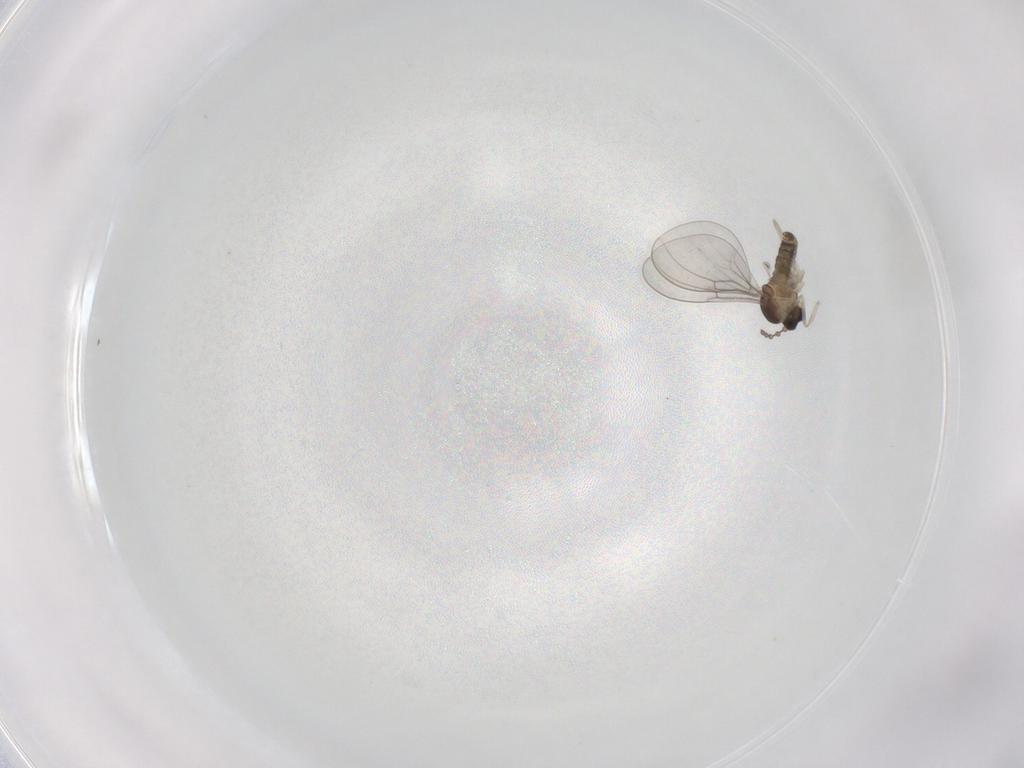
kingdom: Animalia
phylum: Arthropoda
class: Insecta
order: Diptera
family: Cecidomyiidae
